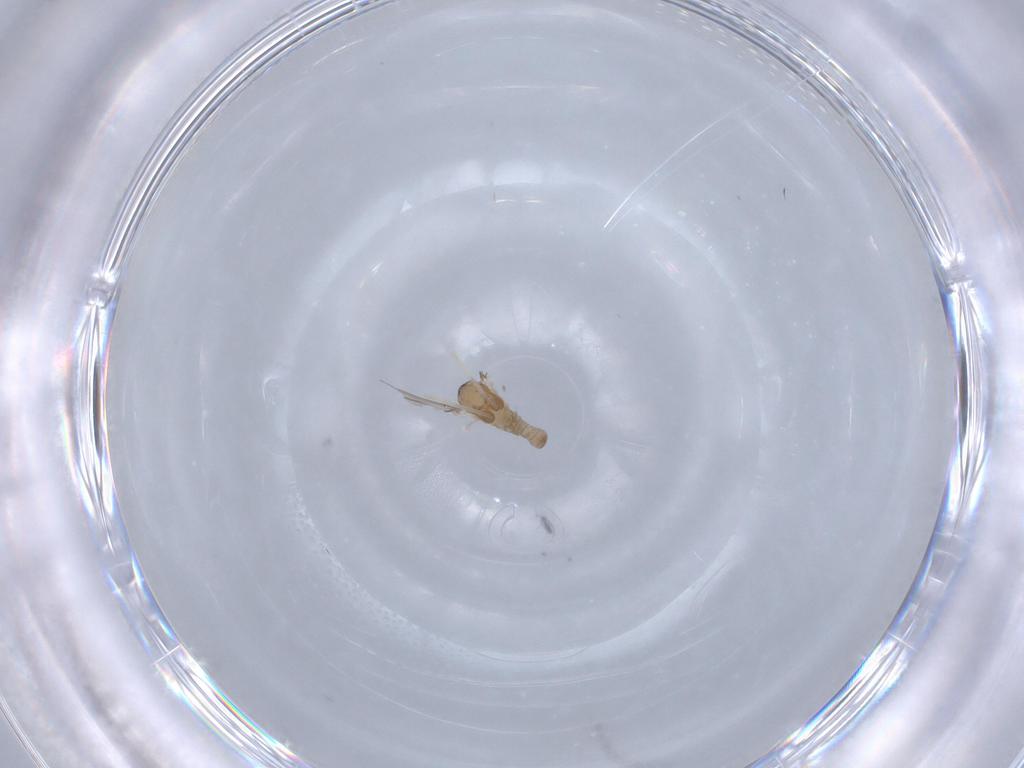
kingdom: Animalia
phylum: Arthropoda
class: Insecta
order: Diptera
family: Cecidomyiidae
